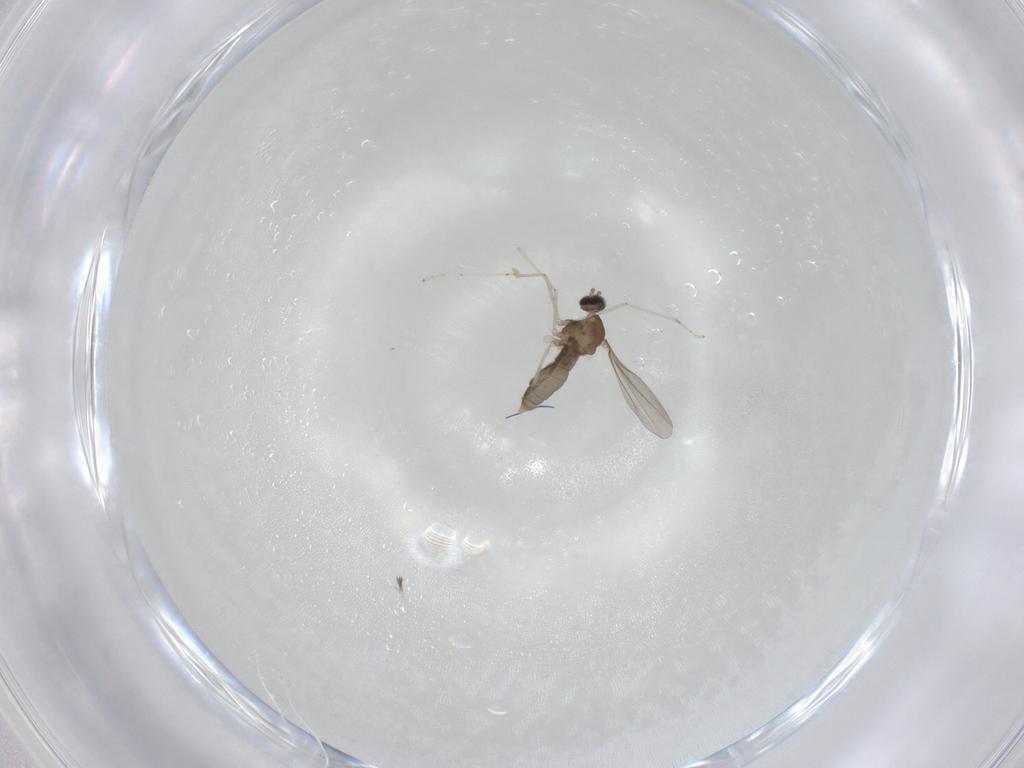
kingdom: Animalia
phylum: Arthropoda
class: Insecta
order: Diptera
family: Cecidomyiidae
